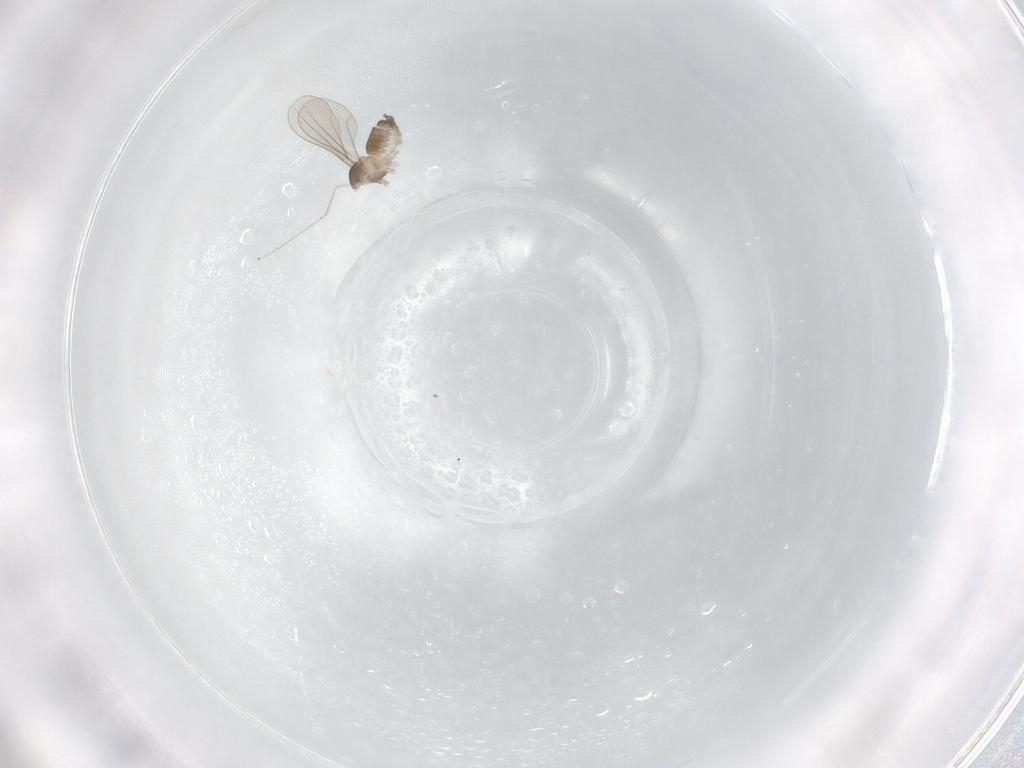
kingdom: Animalia
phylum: Arthropoda
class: Insecta
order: Diptera
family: Cecidomyiidae
